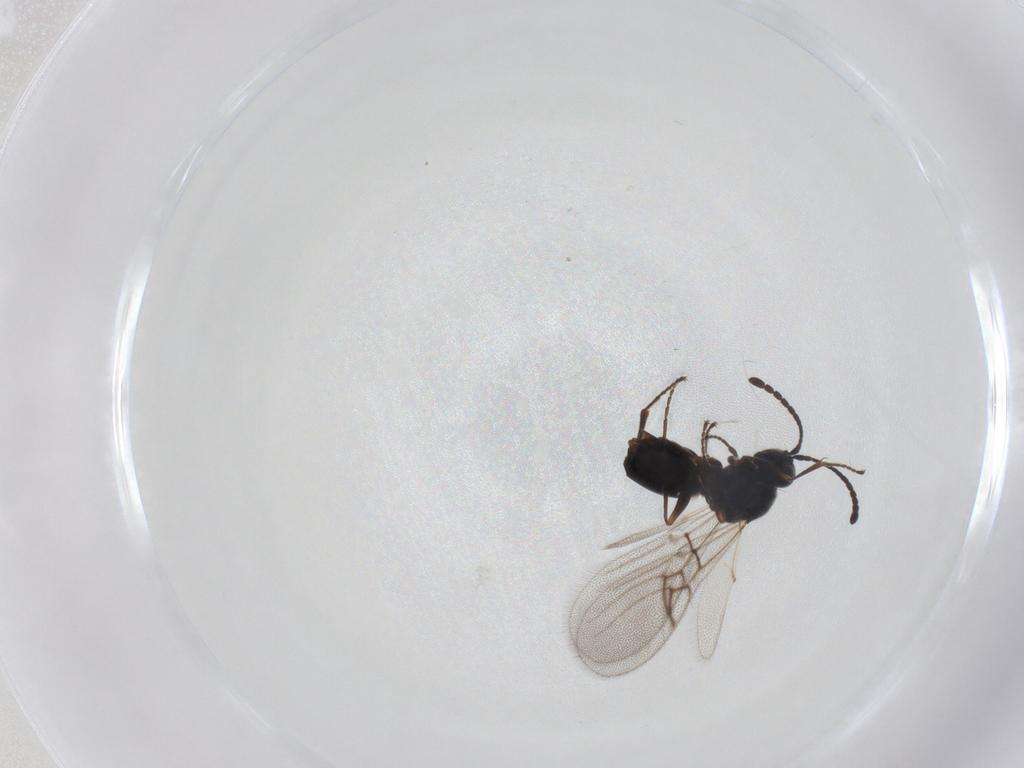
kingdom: Animalia
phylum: Arthropoda
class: Insecta
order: Hymenoptera
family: Figitidae
